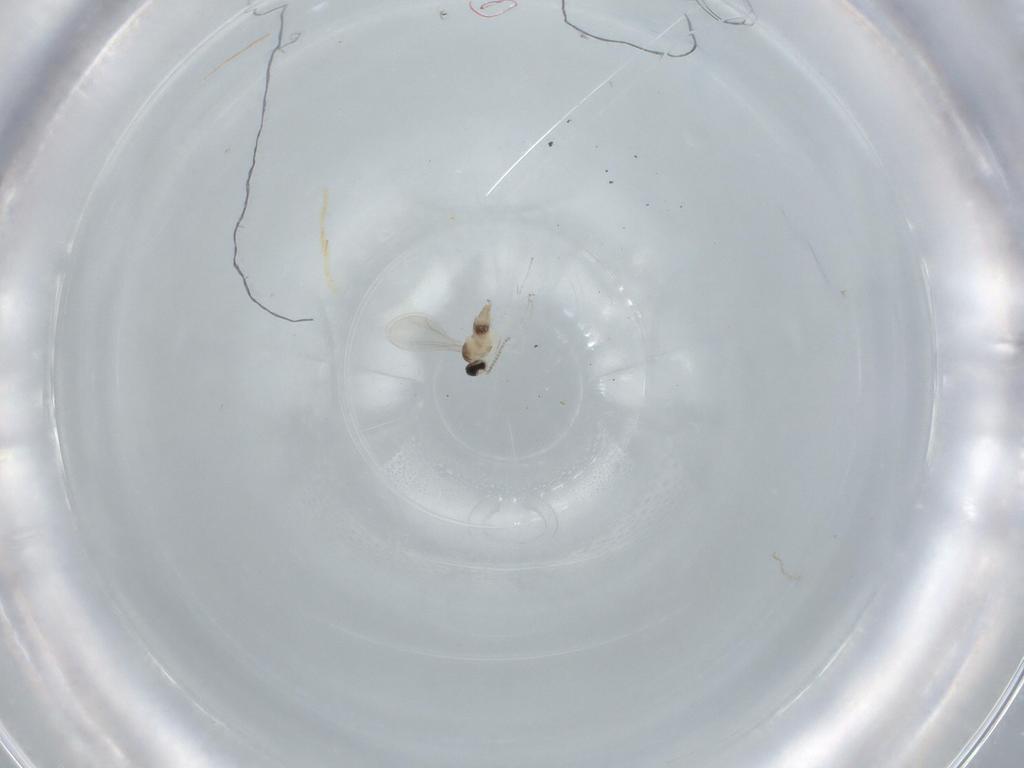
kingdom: Animalia
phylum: Arthropoda
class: Insecta
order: Diptera
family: Cecidomyiidae
